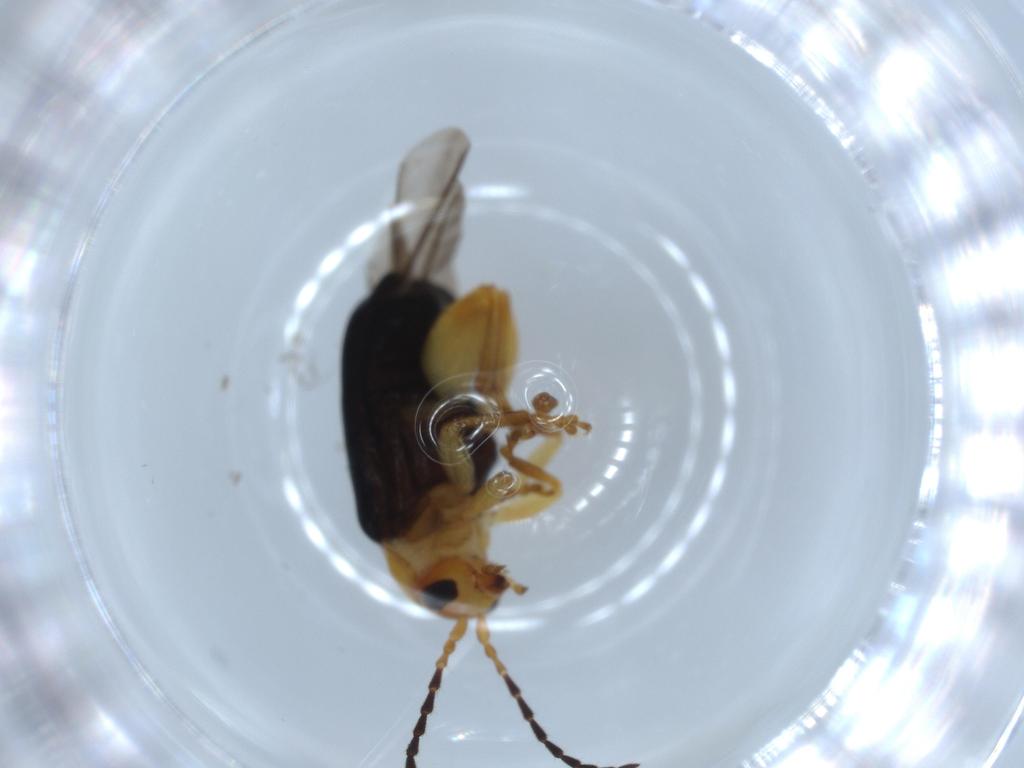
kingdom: Animalia
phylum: Arthropoda
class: Insecta
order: Coleoptera
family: Chrysomelidae
